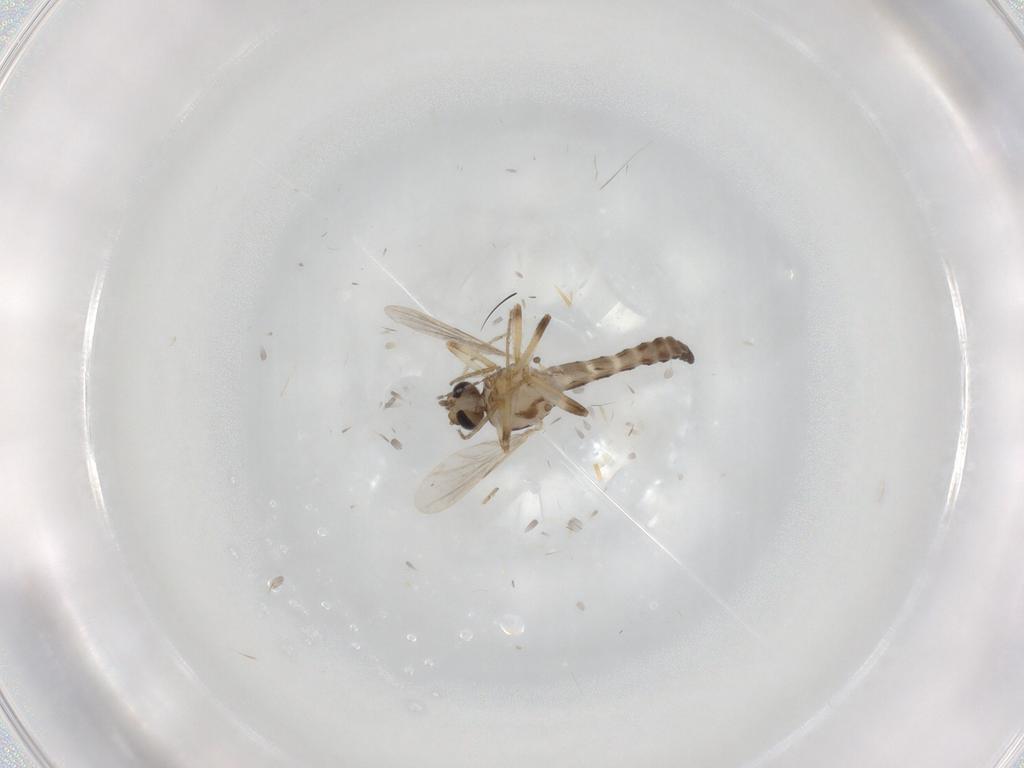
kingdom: Animalia
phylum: Arthropoda
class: Insecta
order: Diptera
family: Ceratopogonidae
